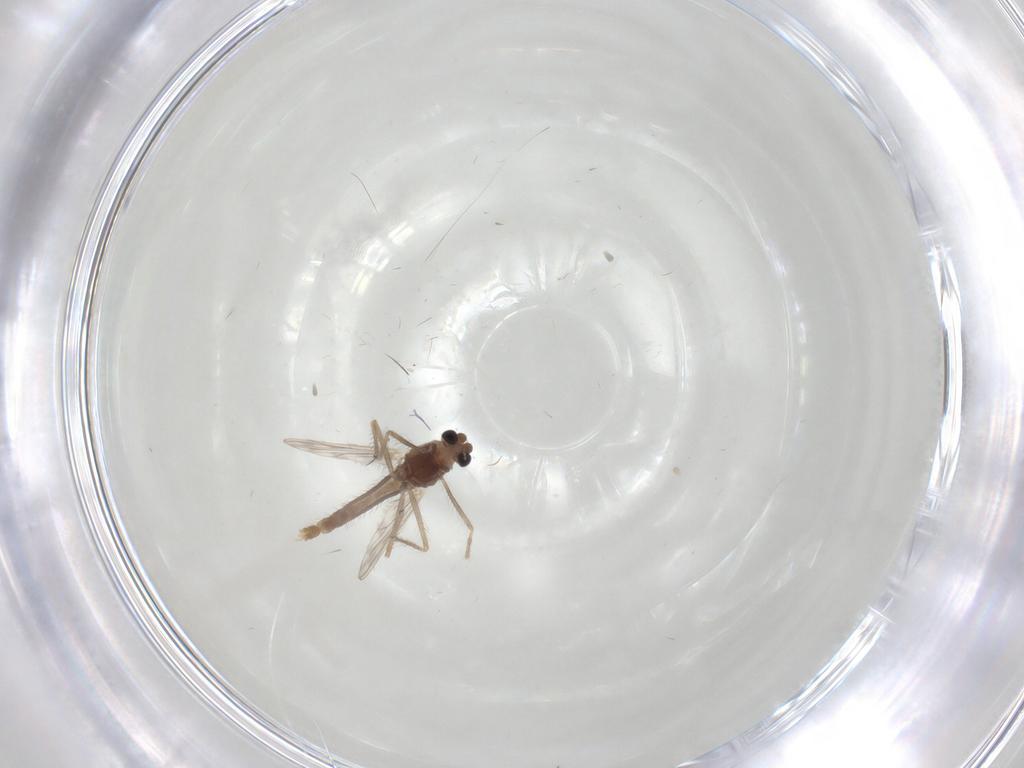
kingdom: Animalia
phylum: Arthropoda
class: Insecta
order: Diptera
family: Chironomidae
